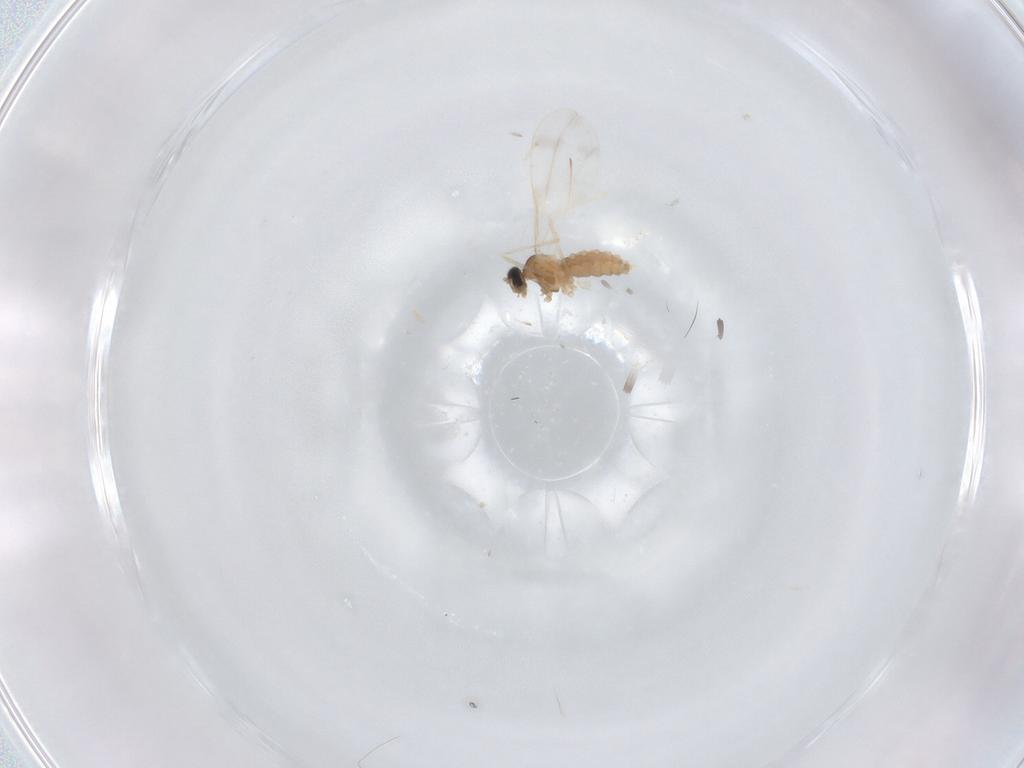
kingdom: Animalia
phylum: Arthropoda
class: Insecta
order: Diptera
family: Cecidomyiidae
